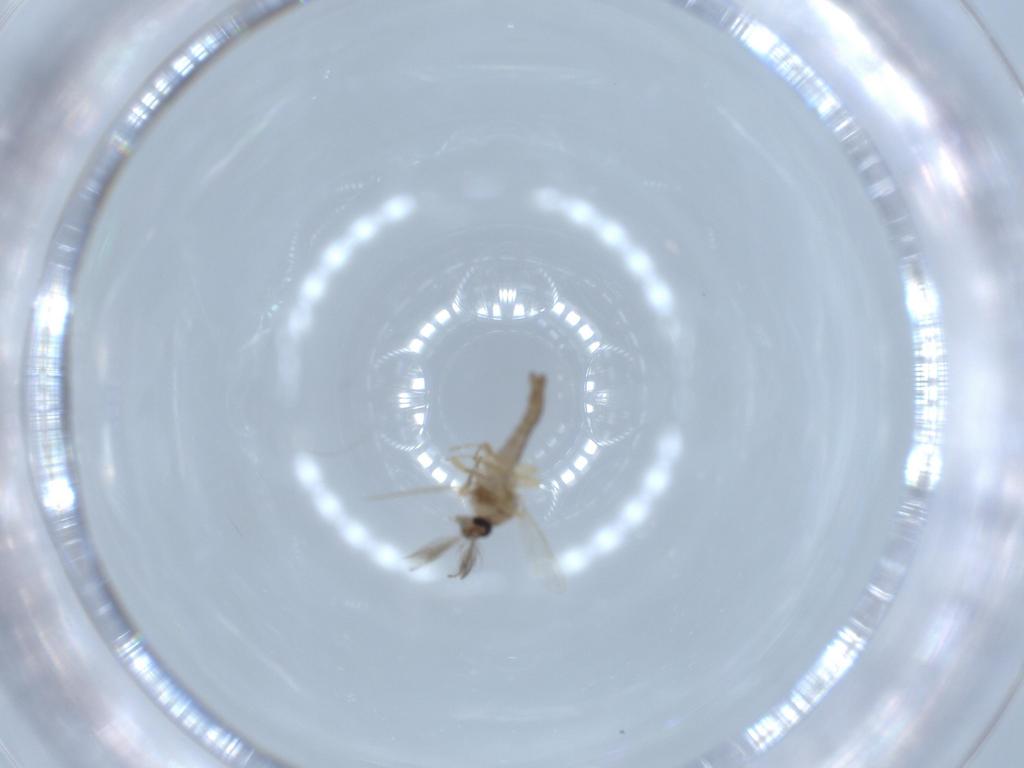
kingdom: Animalia
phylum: Arthropoda
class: Insecta
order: Diptera
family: Ceratopogonidae
